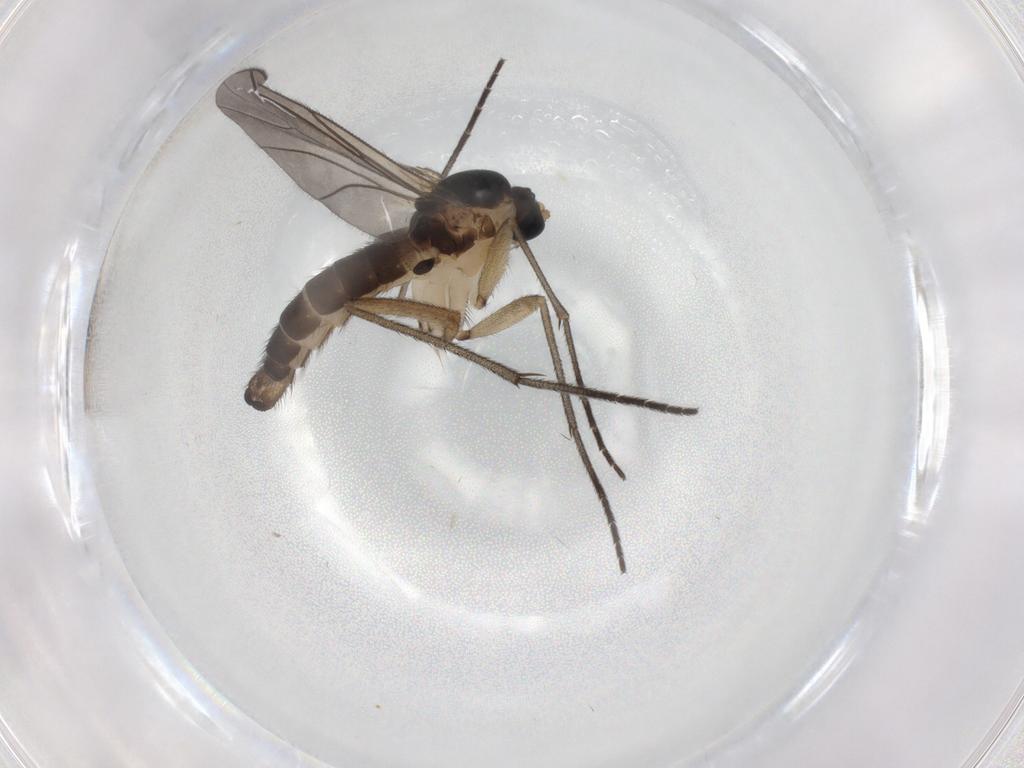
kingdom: Animalia
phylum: Arthropoda
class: Insecta
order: Diptera
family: Sciaridae
